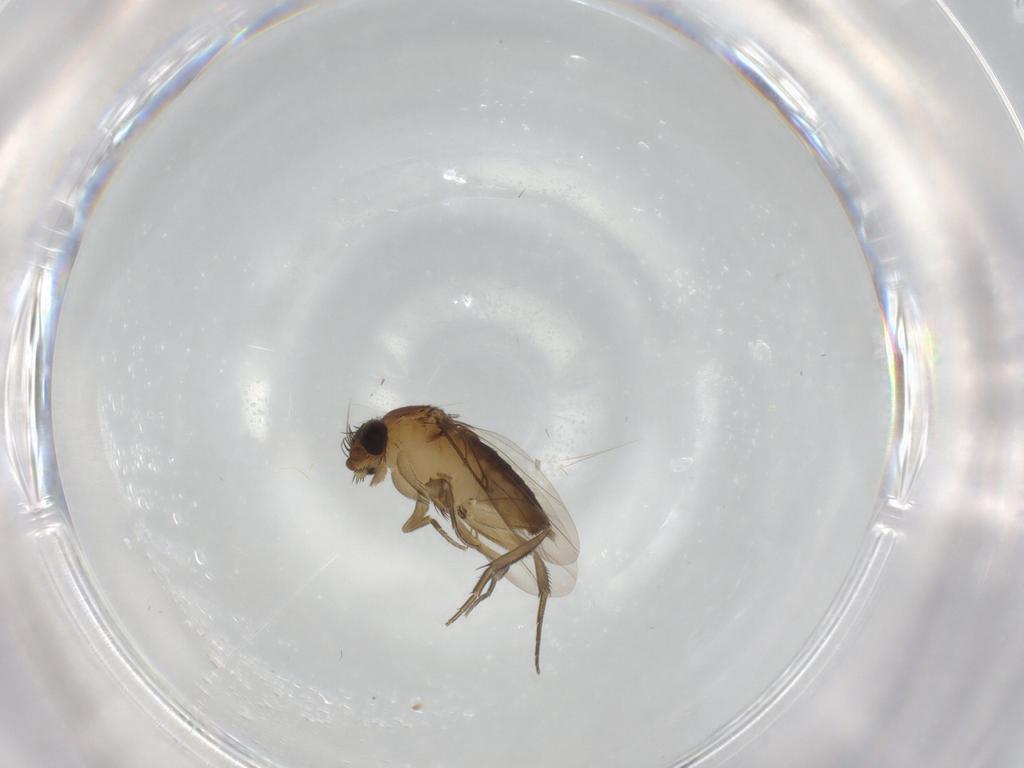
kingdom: Animalia
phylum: Arthropoda
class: Insecta
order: Diptera
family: Phoridae
